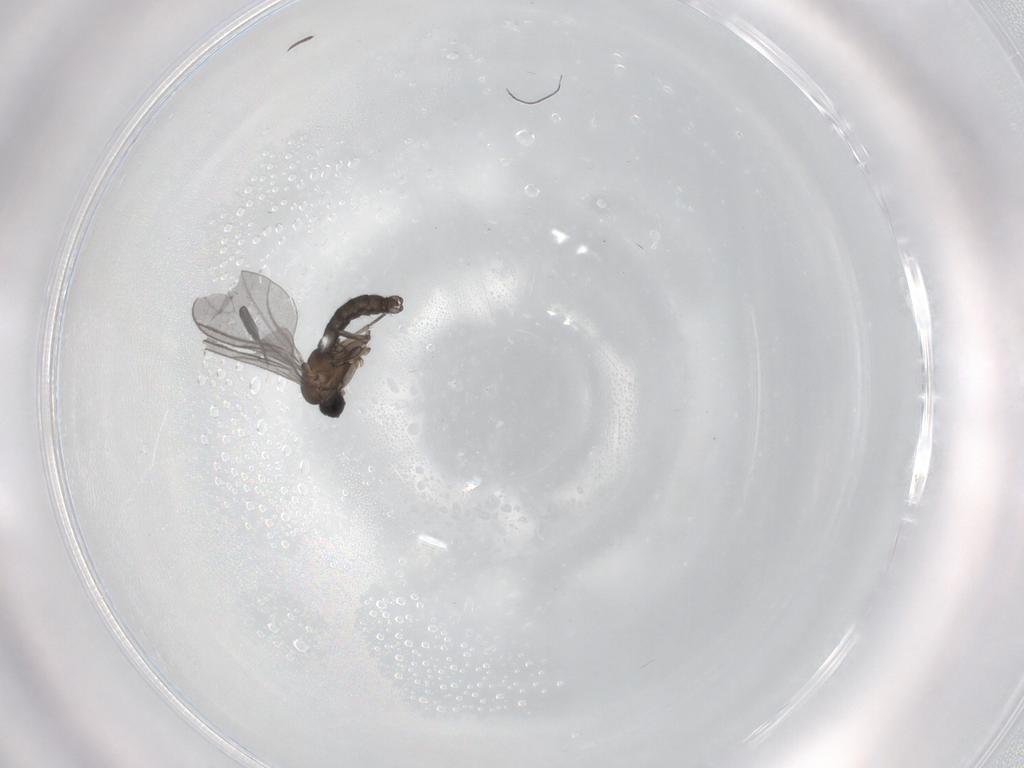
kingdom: Animalia
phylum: Arthropoda
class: Insecta
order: Diptera
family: Sciaridae
